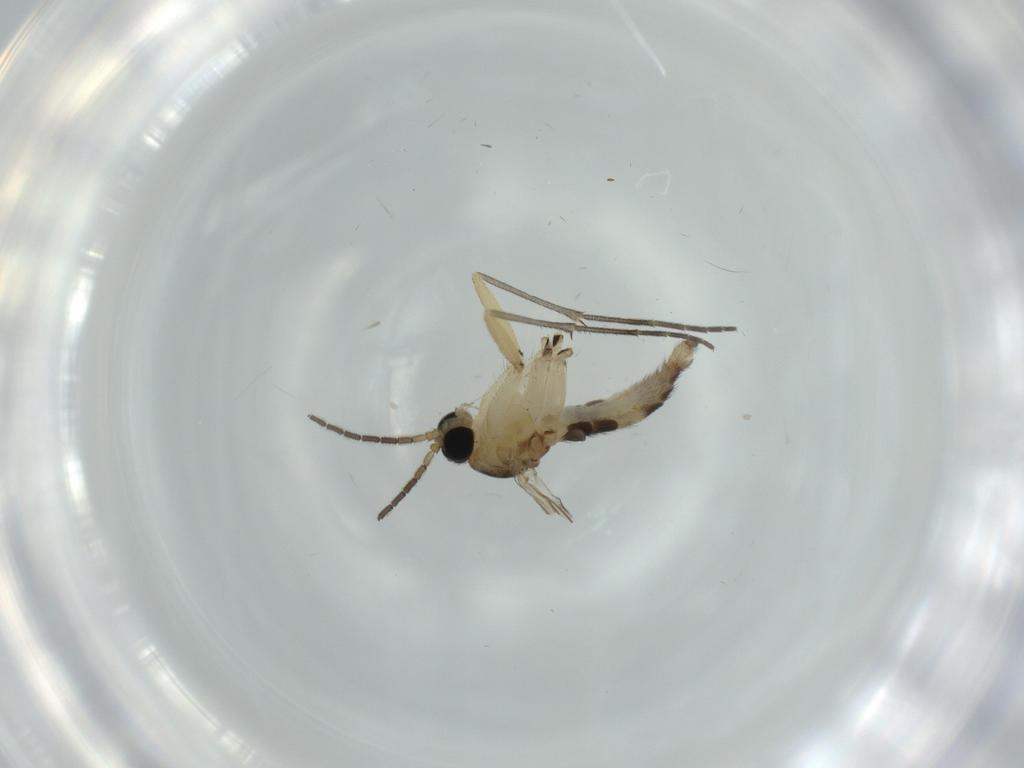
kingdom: Animalia
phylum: Arthropoda
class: Insecta
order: Diptera
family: Sciaridae
